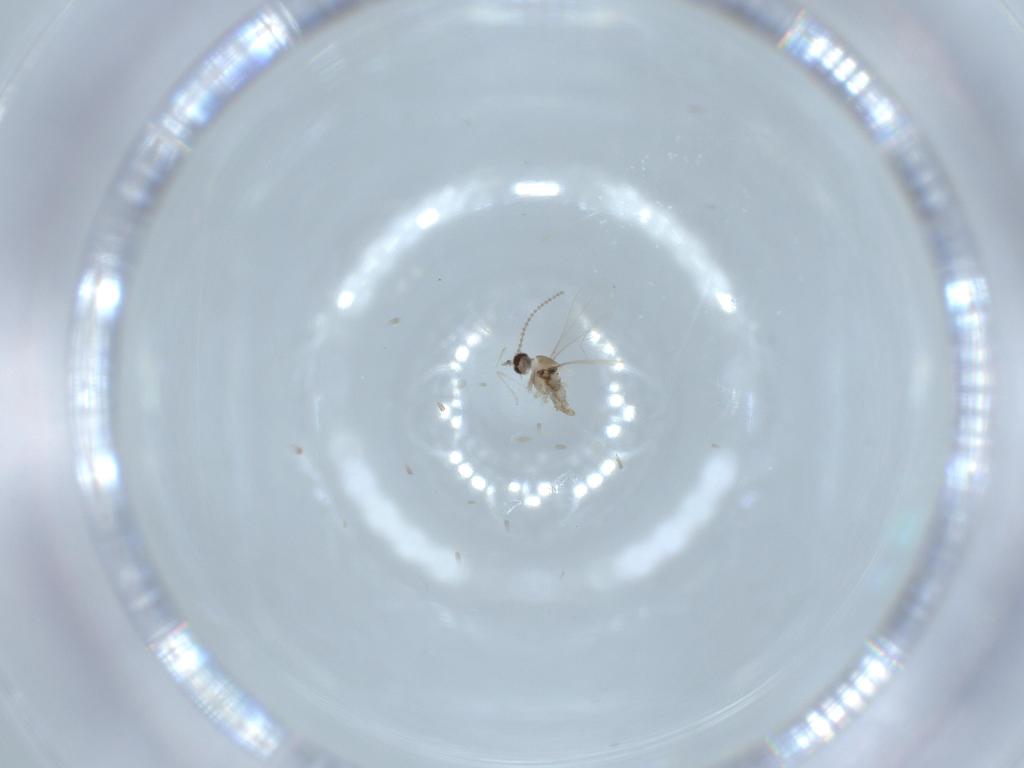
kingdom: Animalia
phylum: Arthropoda
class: Insecta
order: Diptera
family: Cecidomyiidae
